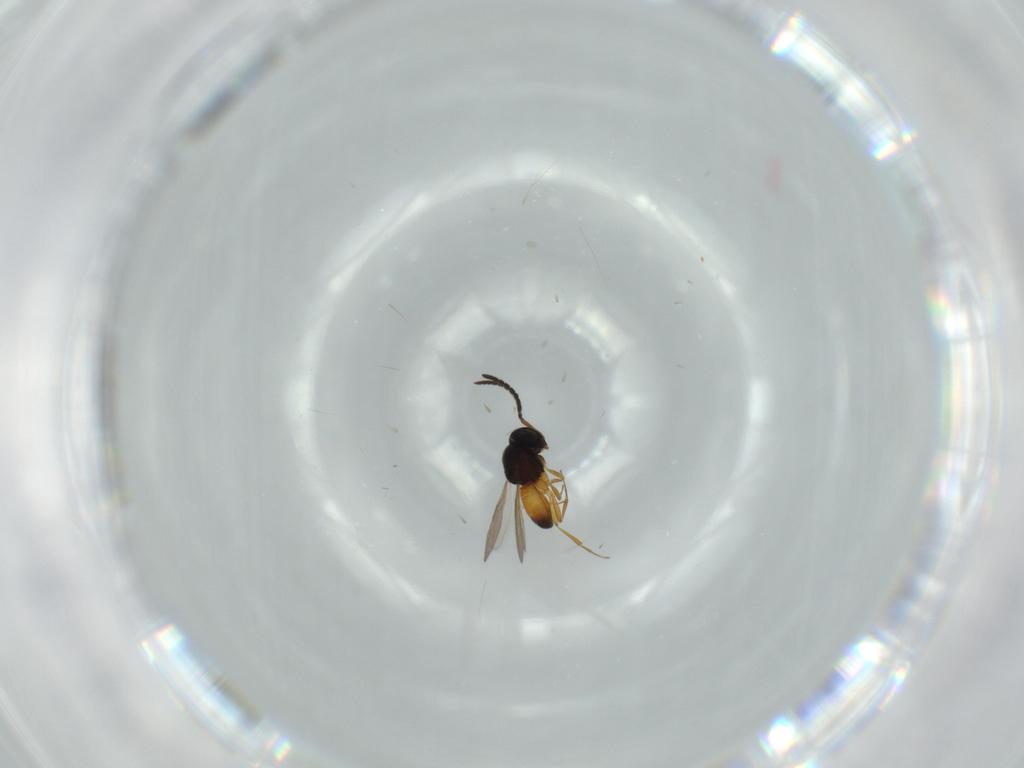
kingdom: Animalia
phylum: Arthropoda
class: Insecta
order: Hymenoptera
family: Scelionidae
